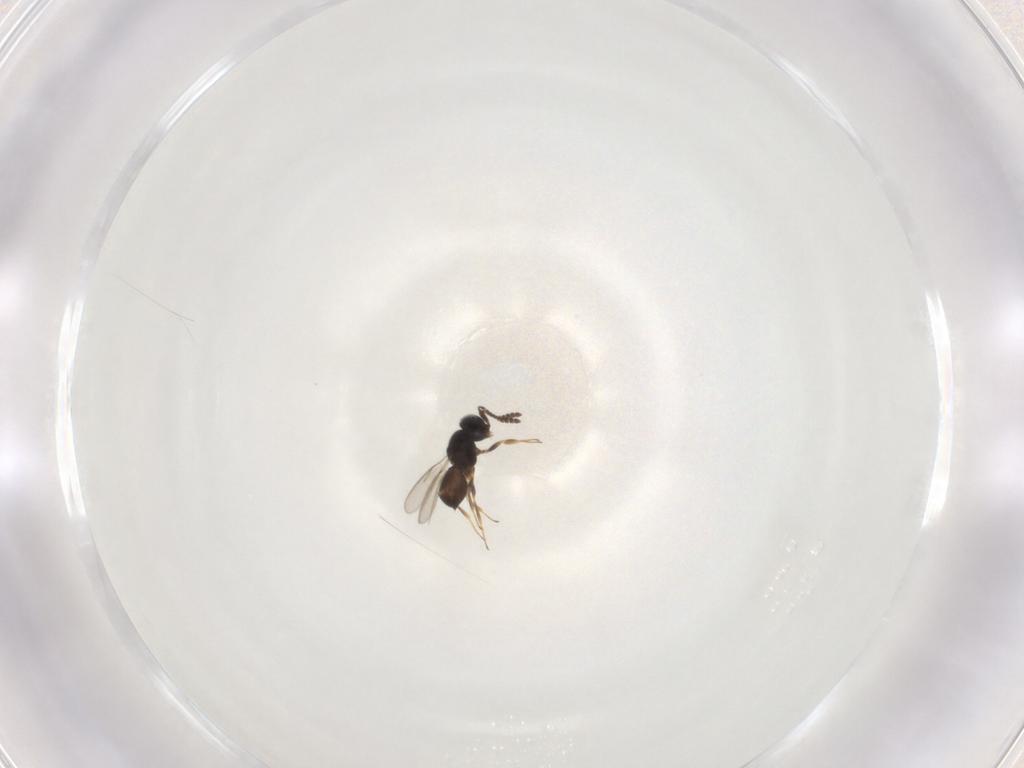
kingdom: Animalia
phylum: Arthropoda
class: Insecta
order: Hymenoptera
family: Scelionidae
